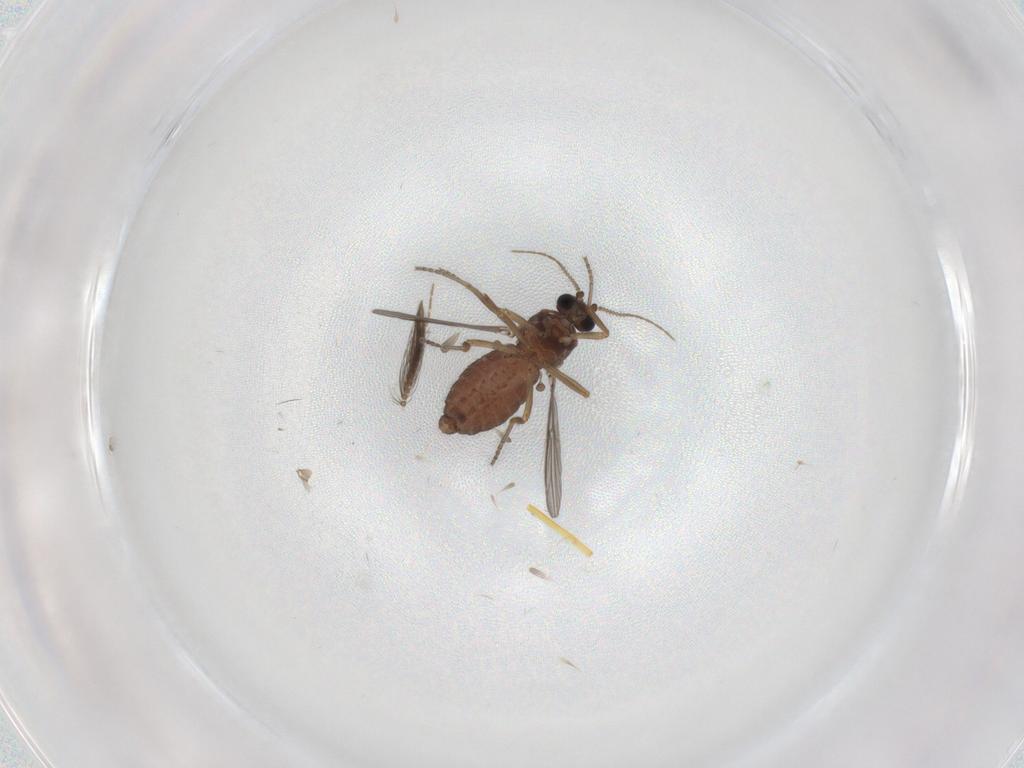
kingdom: Animalia
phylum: Arthropoda
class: Insecta
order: Diptera
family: Ceratopogonidae
